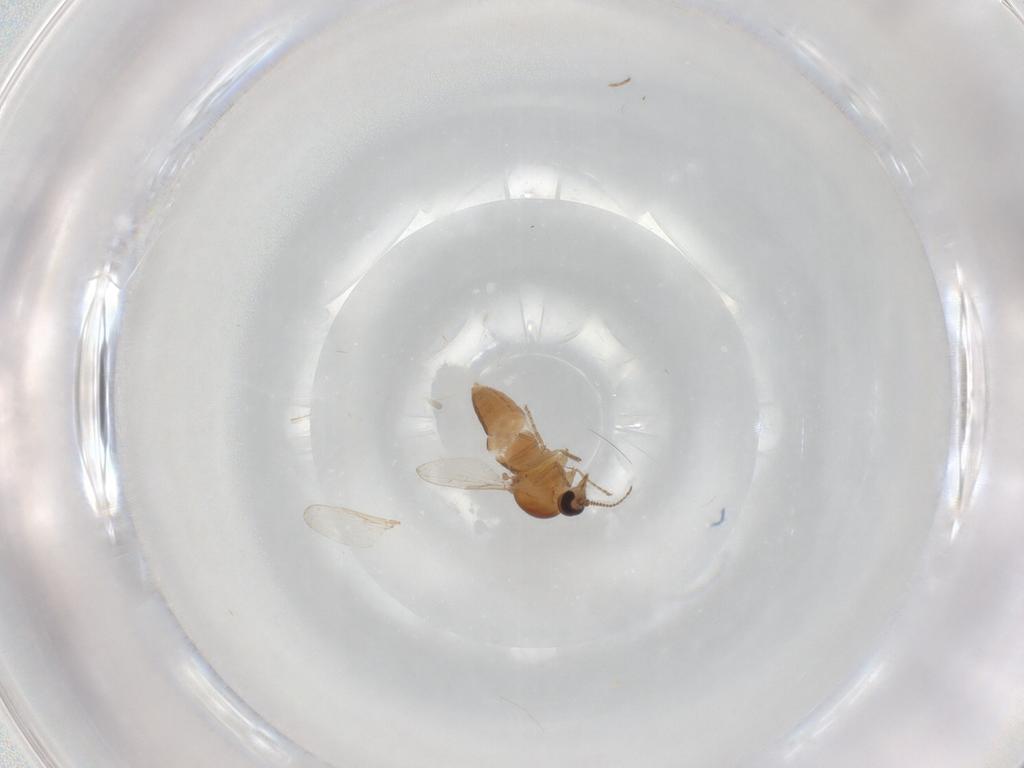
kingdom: Animalia
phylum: Arthropoda
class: Insecta
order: Diptera
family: Ceratopogonidae
